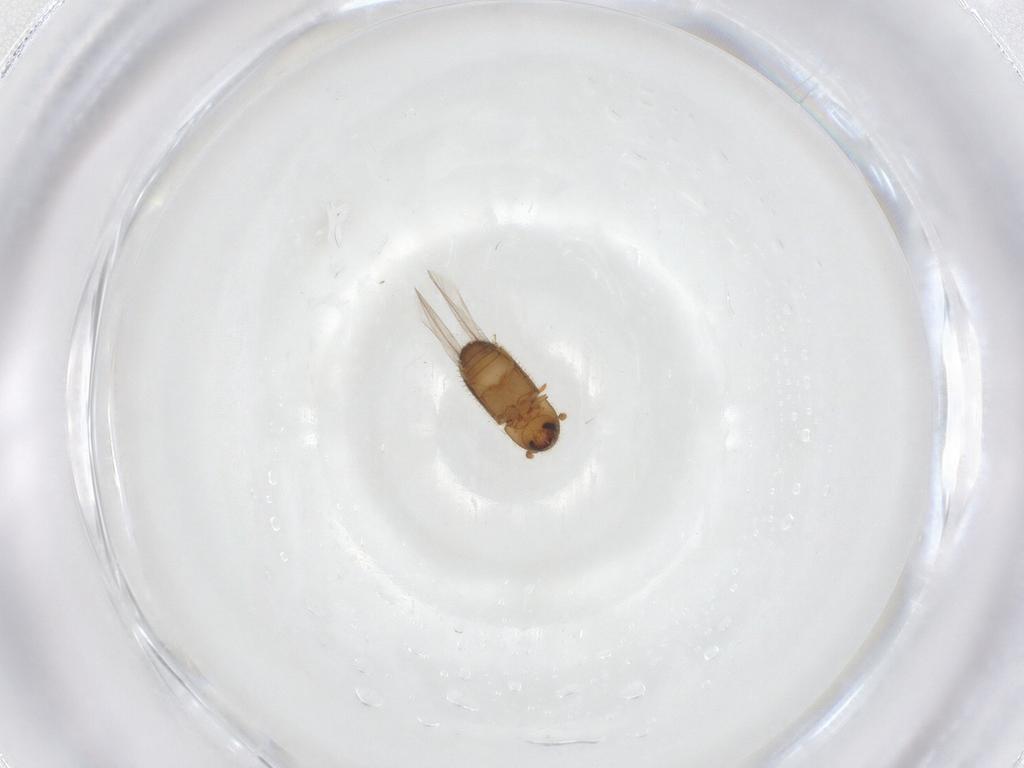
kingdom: Animalia
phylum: Arthropoda
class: Insecta
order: Coleoptera
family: Curculionidae
